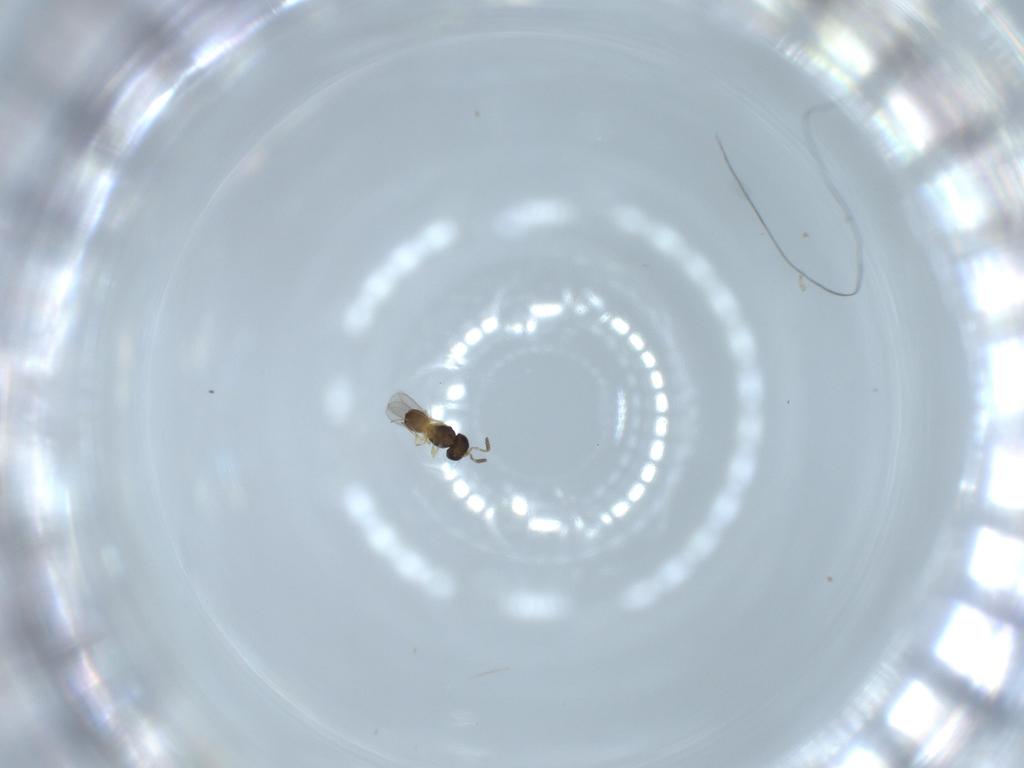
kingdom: Animalia
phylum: Arthropoda
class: Insecta
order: Hymenoptera
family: Scelionidae
